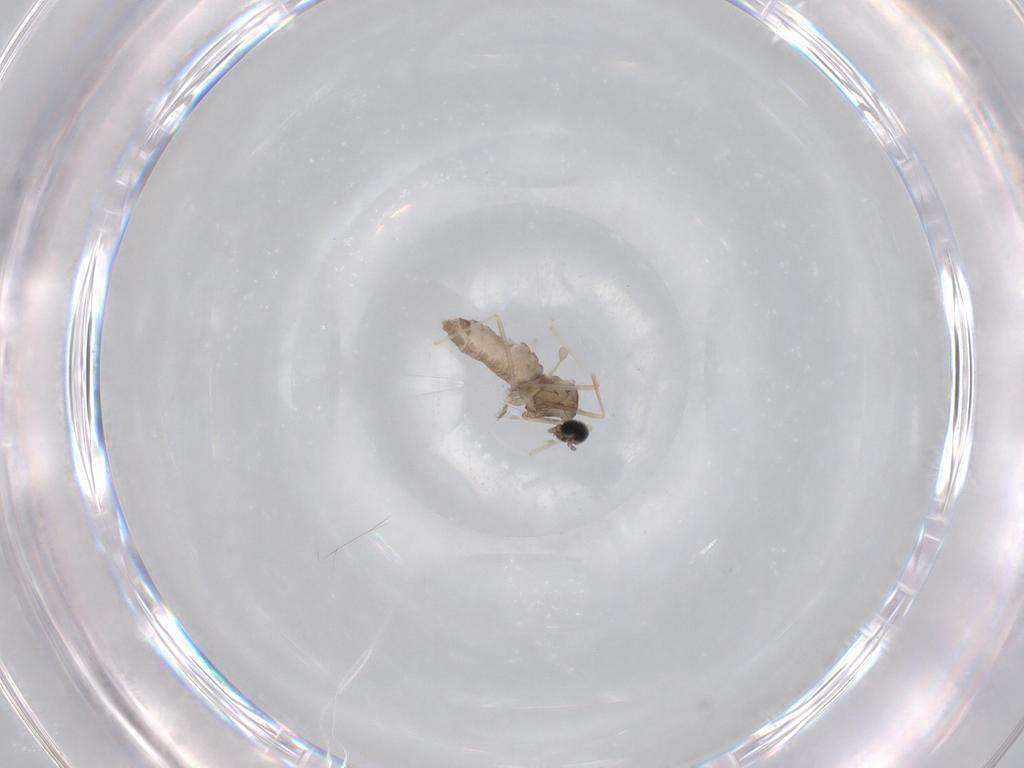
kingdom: Animalia
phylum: Arthropoda
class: Insecta
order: Diptera
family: Cecidomyiidae
